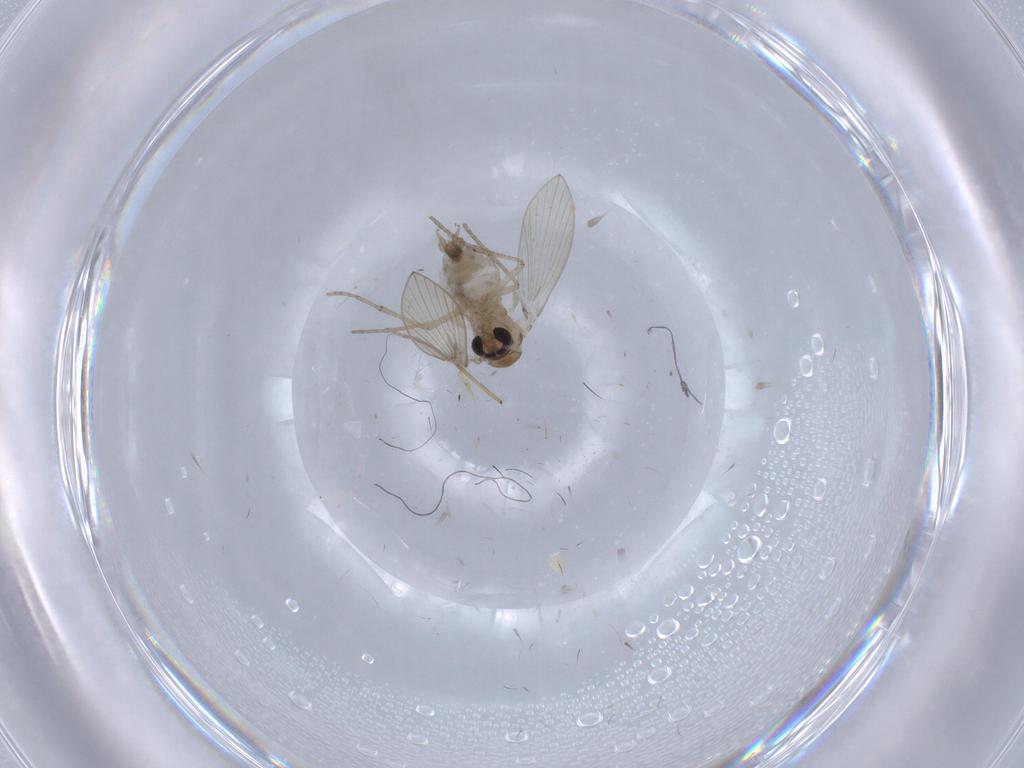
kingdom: Animalia
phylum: Arthropoda
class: Insecta
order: Diptera
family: Psychodidae
